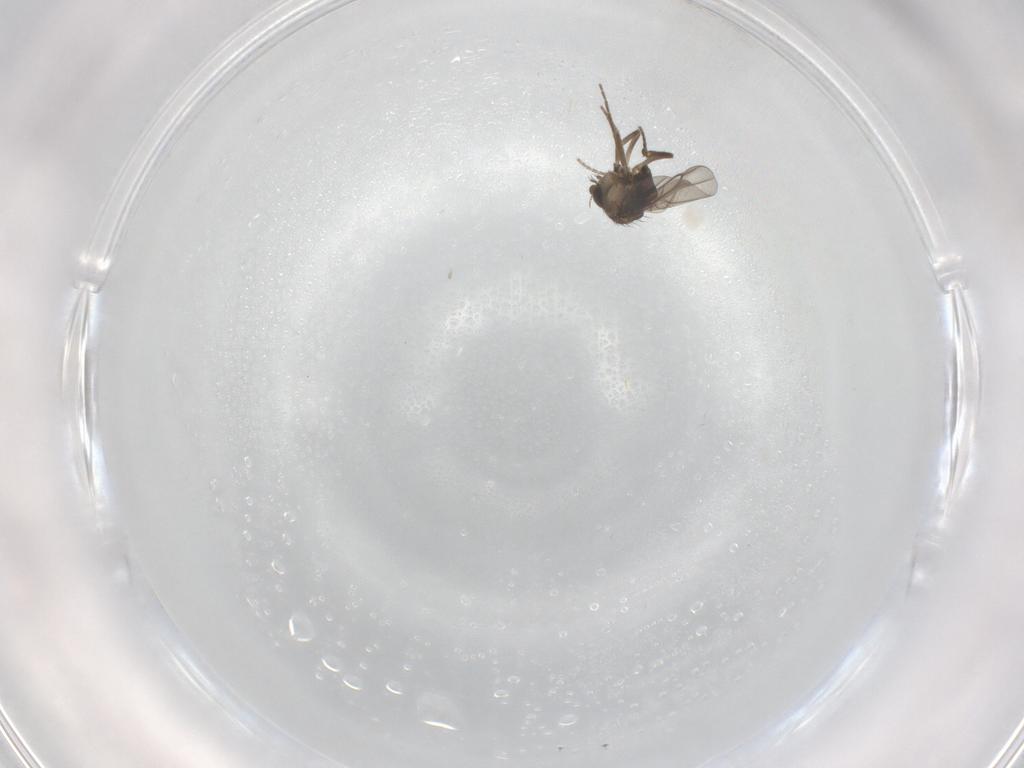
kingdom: Animalia
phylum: Arthropoda
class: Insecta
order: Diptera
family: Phoridae
